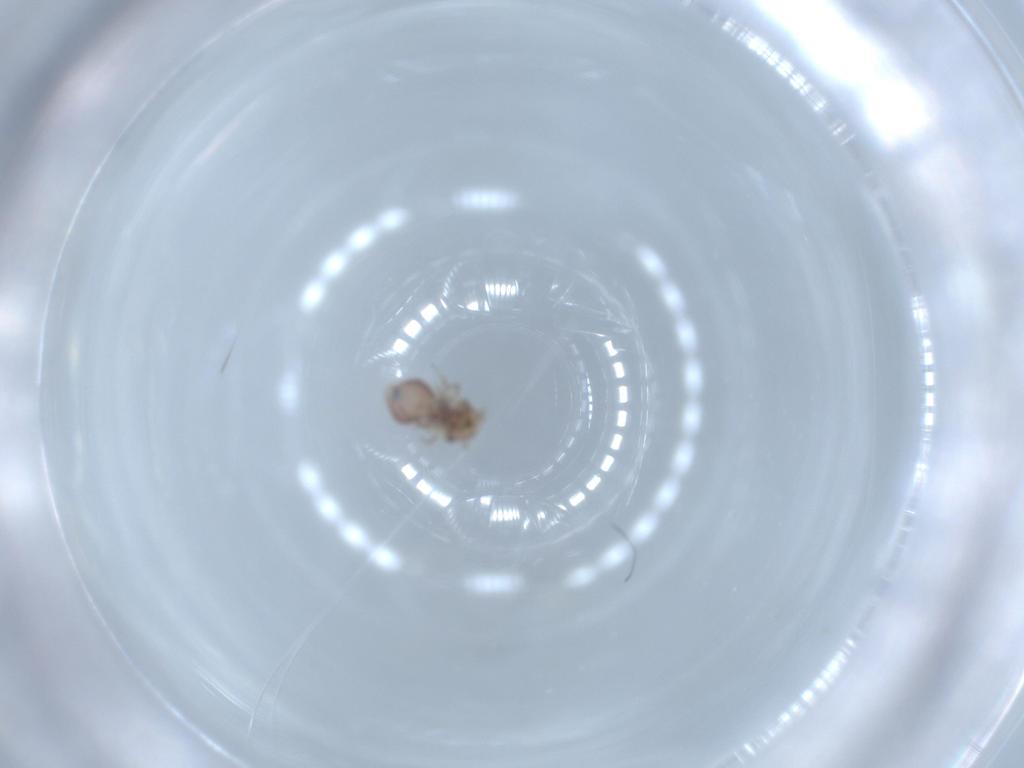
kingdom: Animalia
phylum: Arthropoda
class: Insecta
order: Psocodea
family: Ectopsocidae
